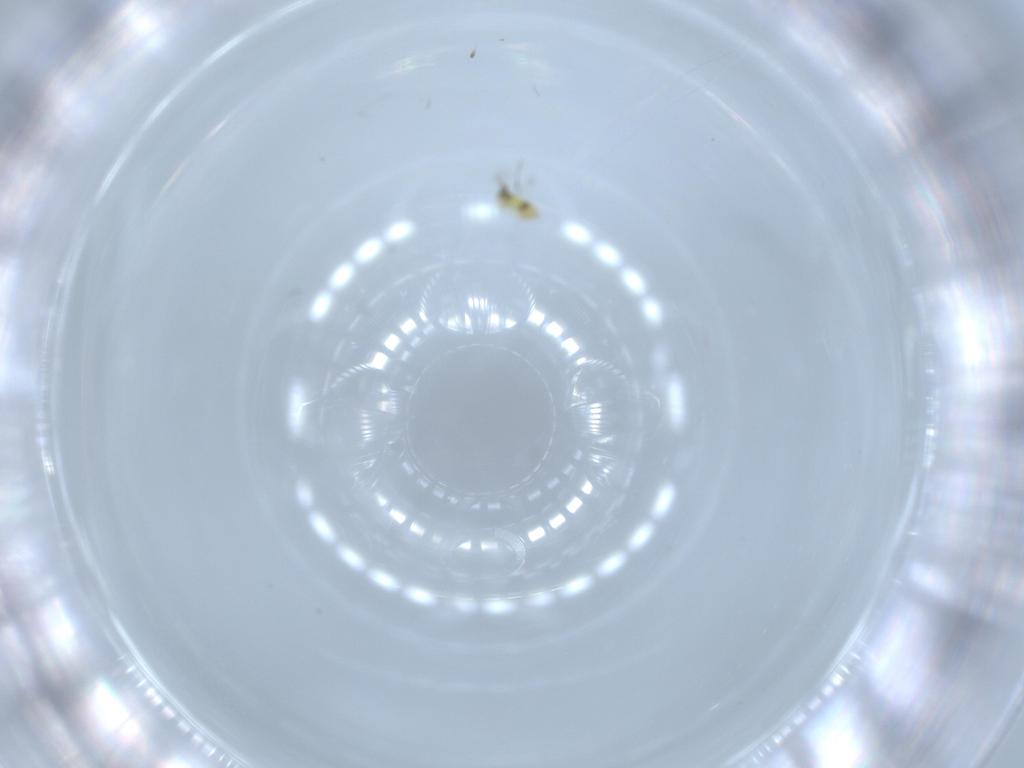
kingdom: Animalia
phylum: Arthropoda
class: Insecta
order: Hymenoptera
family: Signiphoridae
